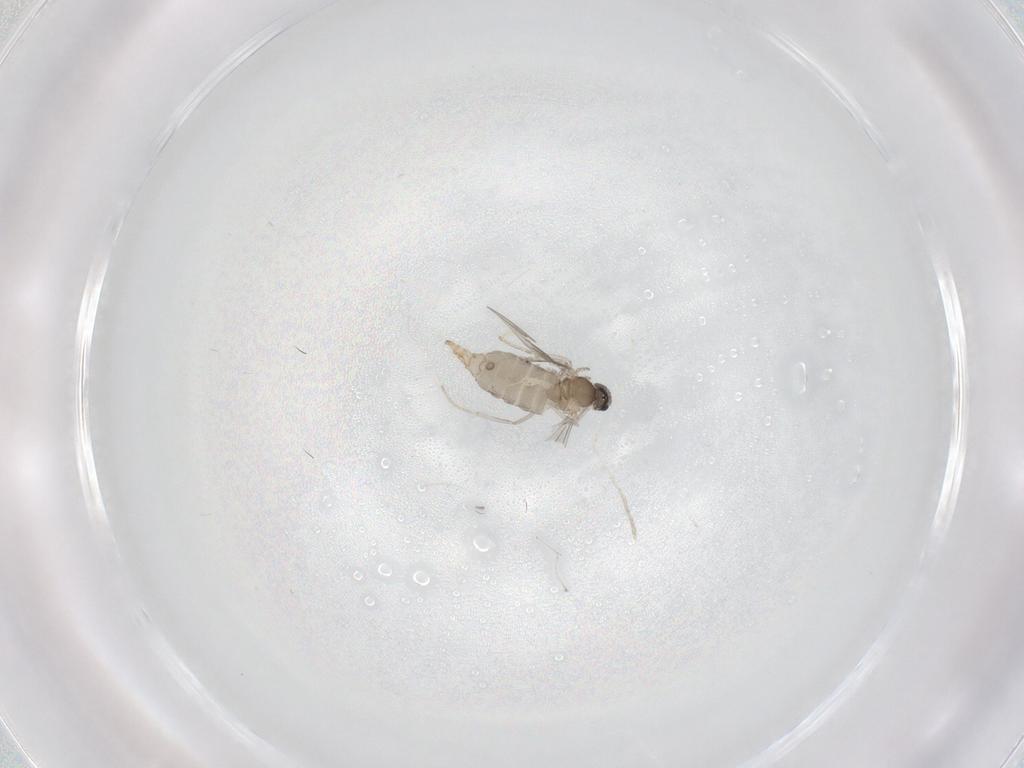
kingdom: Animalia
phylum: Arthropoda
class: Insecta
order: Diptera
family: Cecidomyiidae
